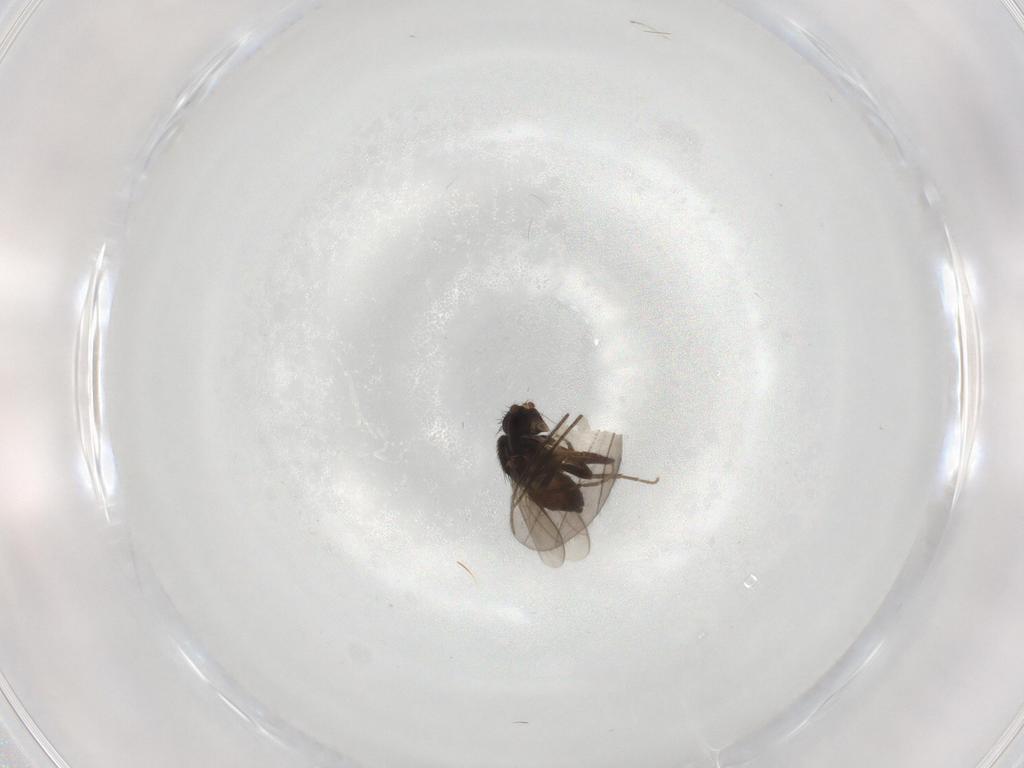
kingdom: Animalia
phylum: Arthropoda
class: Insecta
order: Diptera
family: Sphaeroceridae
